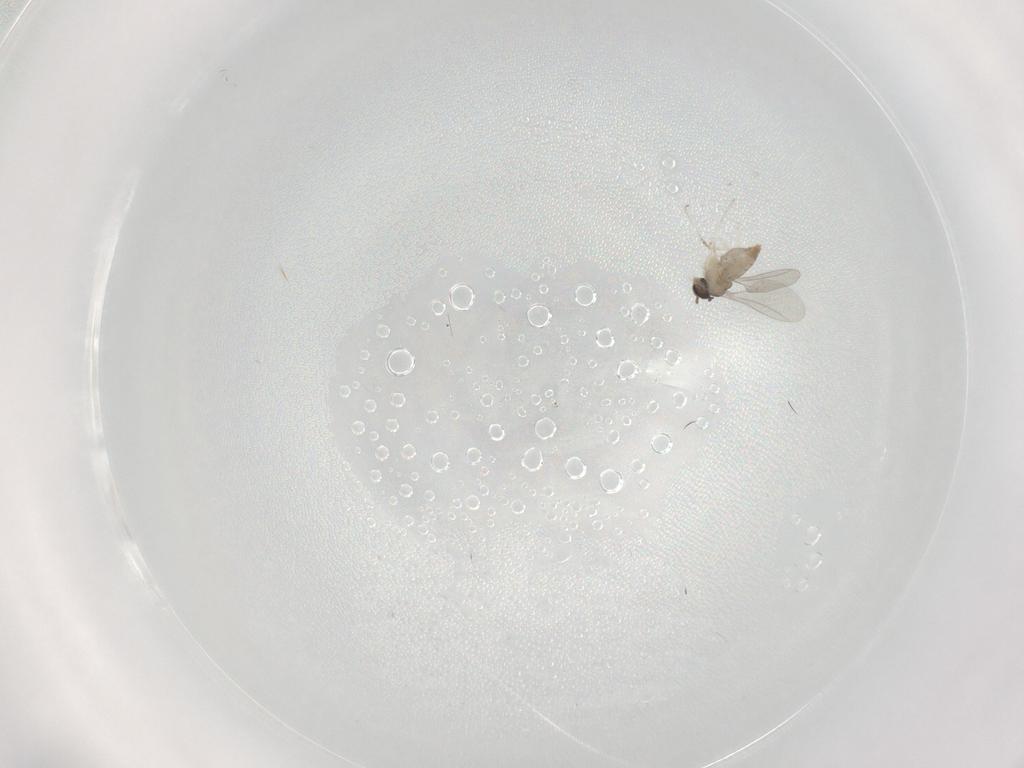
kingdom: Animalia
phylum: Arthropoda
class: Insecta
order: Diptera
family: Cecidomyiidae
